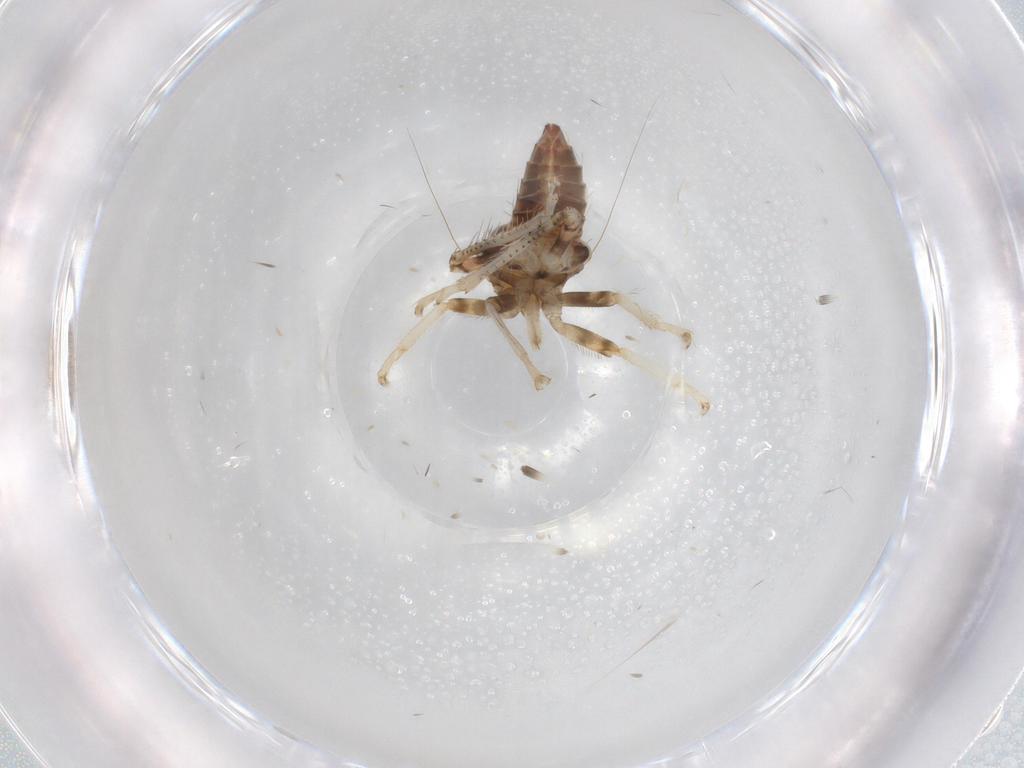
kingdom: Animalia
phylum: Arthropoda
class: Insecta
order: Hemiptera
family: Cicadellidae
